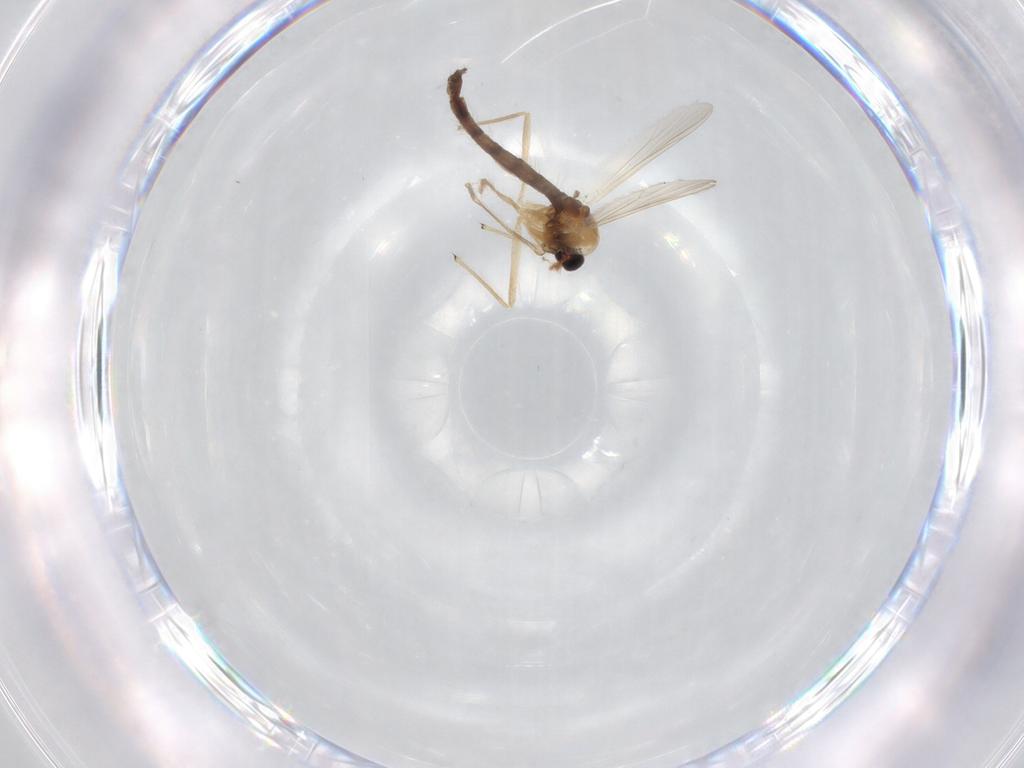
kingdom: Animalia
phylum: Arthropoda
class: Insecta
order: Diptera
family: Chironomidae
